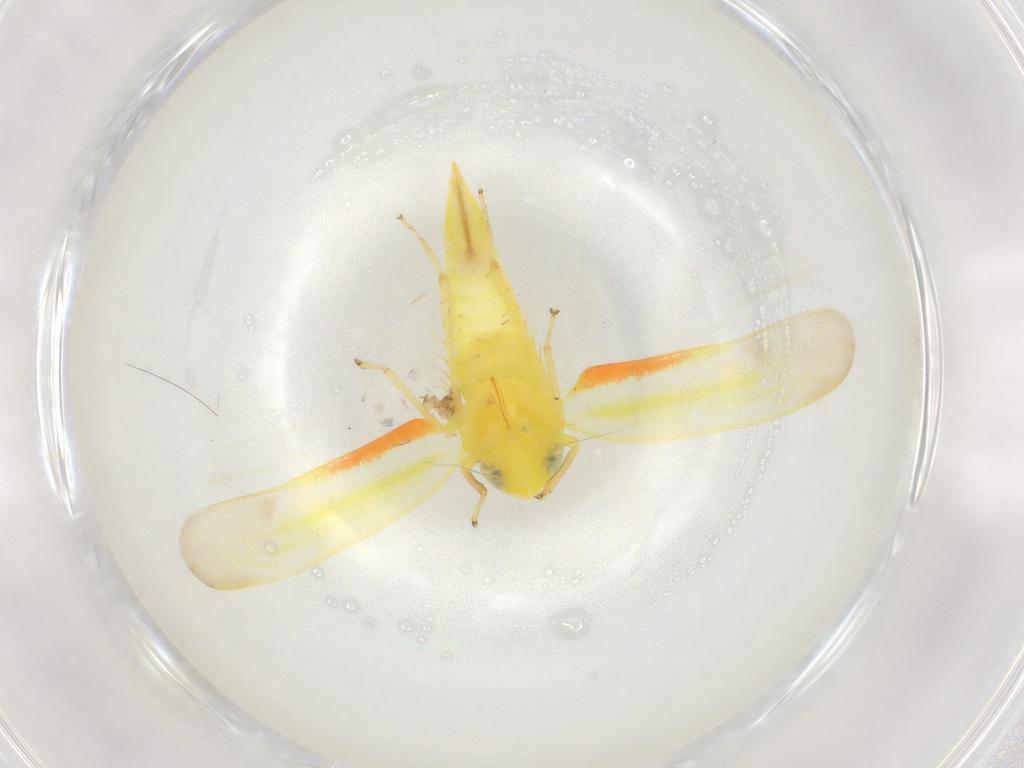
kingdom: Animalia
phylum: Arthropoda
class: Insecta
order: Hemiptera
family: Cicadellidae
